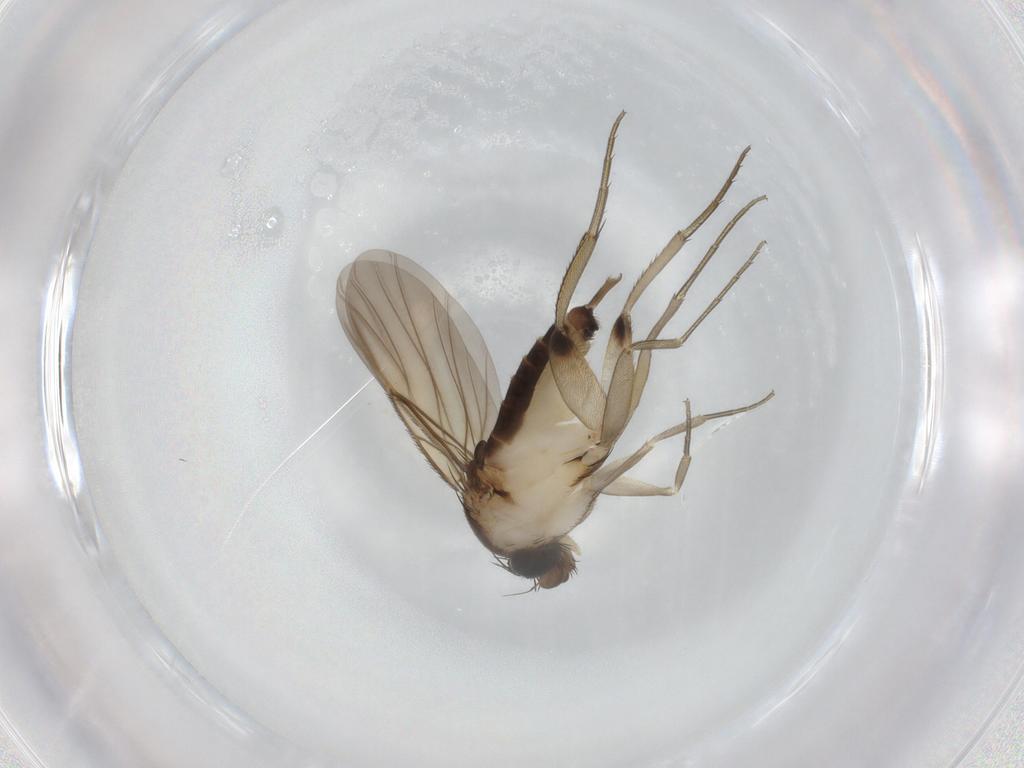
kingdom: Animalia
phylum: Arthropoda
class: Insecta
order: Diptera
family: Phoridae
